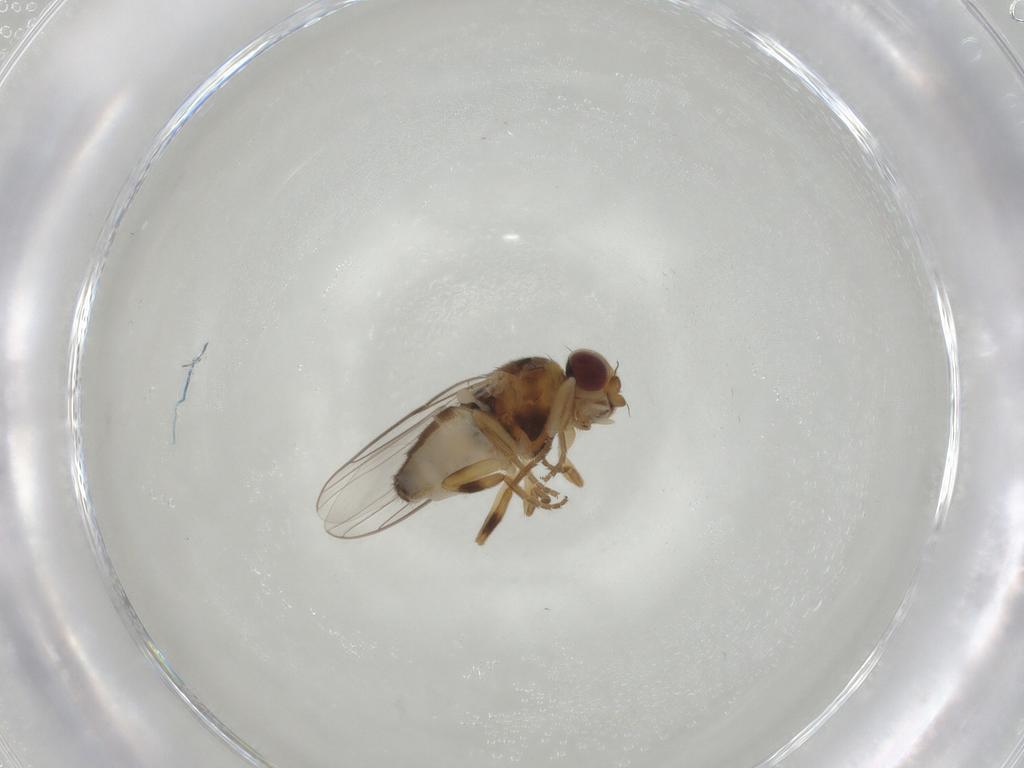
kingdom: Animalia
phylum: Arthropoda
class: Insecta
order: Diptera
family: Chloropidae
